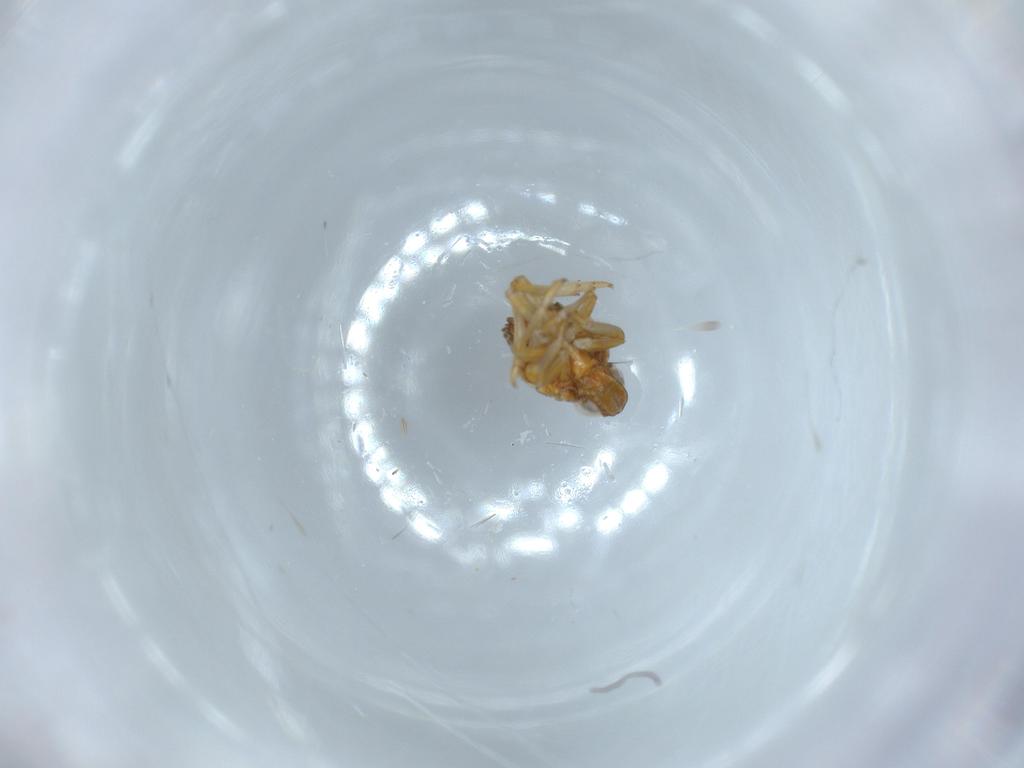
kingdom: Animalia
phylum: Arthropoda
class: Insecta
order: Hemiptera
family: Issidae
